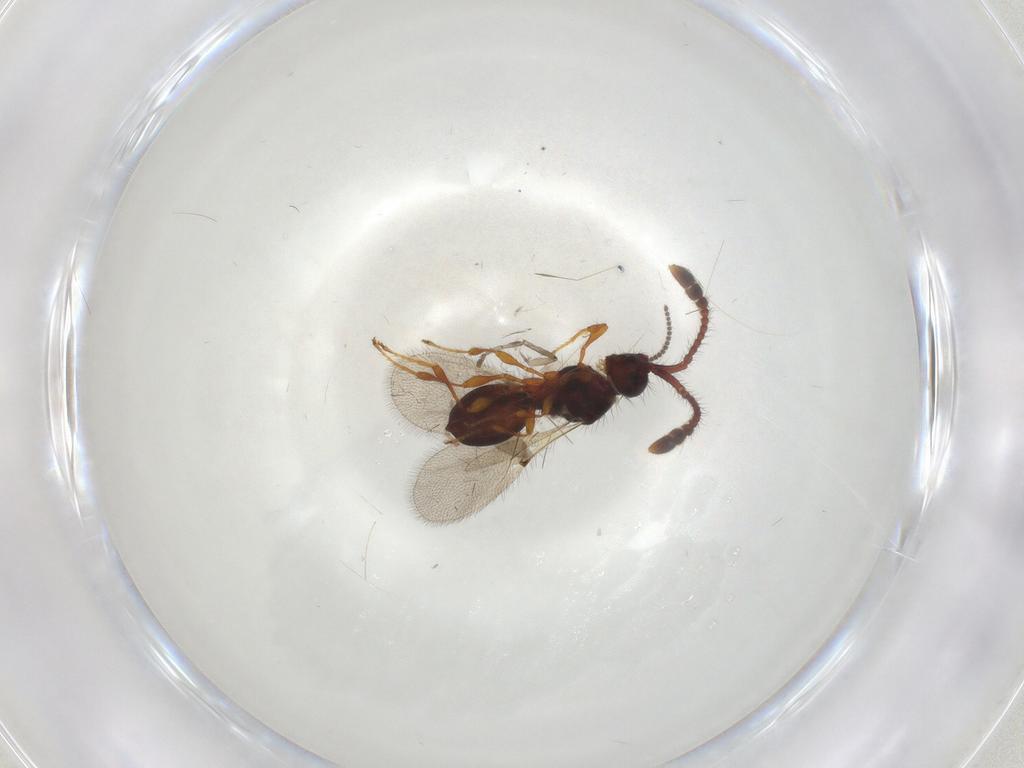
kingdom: Animalia
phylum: Arthropoda
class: Insecta
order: Hymenoptera
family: Diapriidae
